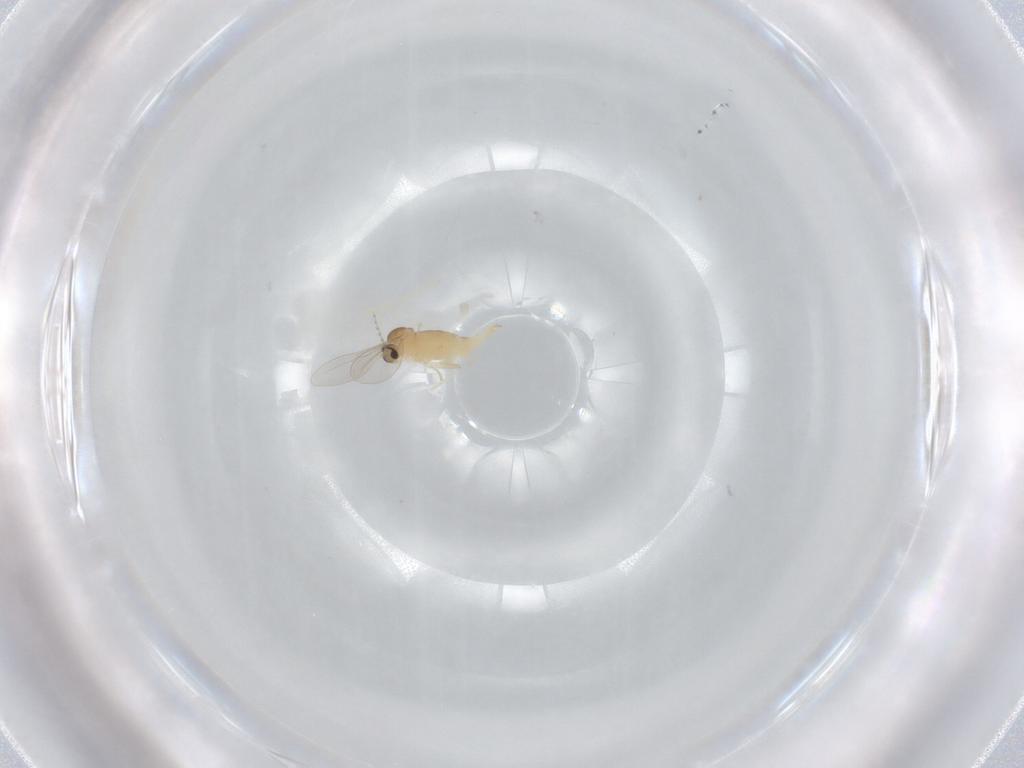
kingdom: Animalia
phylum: Arthropoda
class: Insecta
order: Diptera
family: Cecidomyiidae
